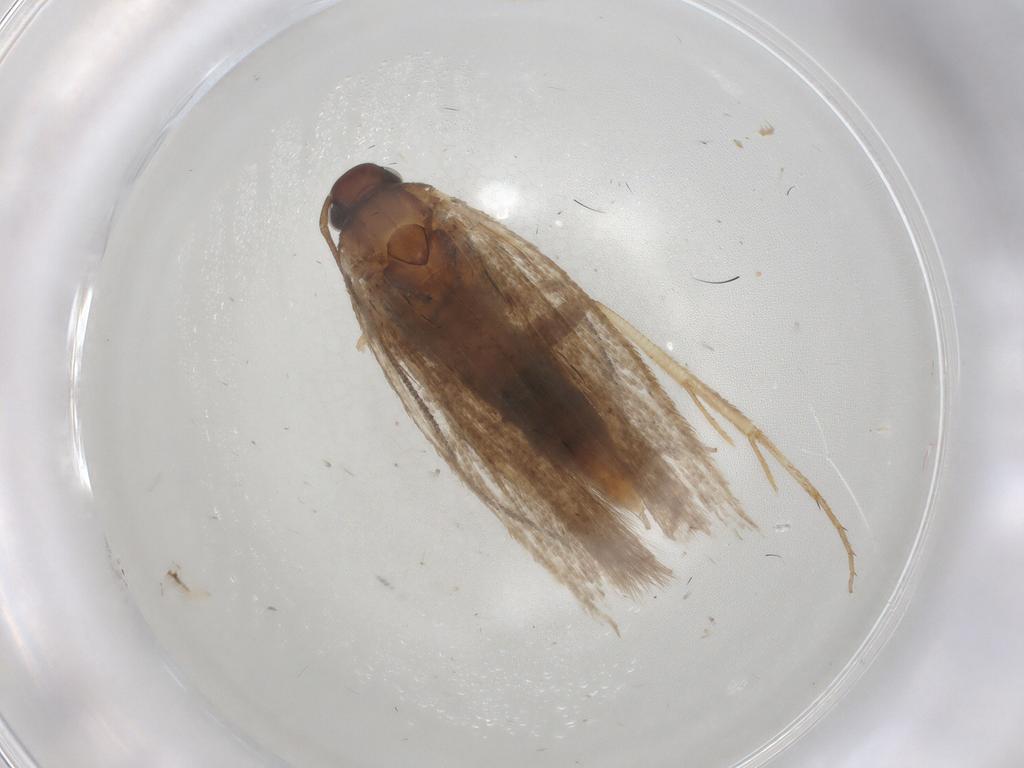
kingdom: Animalia
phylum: Arthropoda
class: Insecta
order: Lepidoptera
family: Gelechiidae
